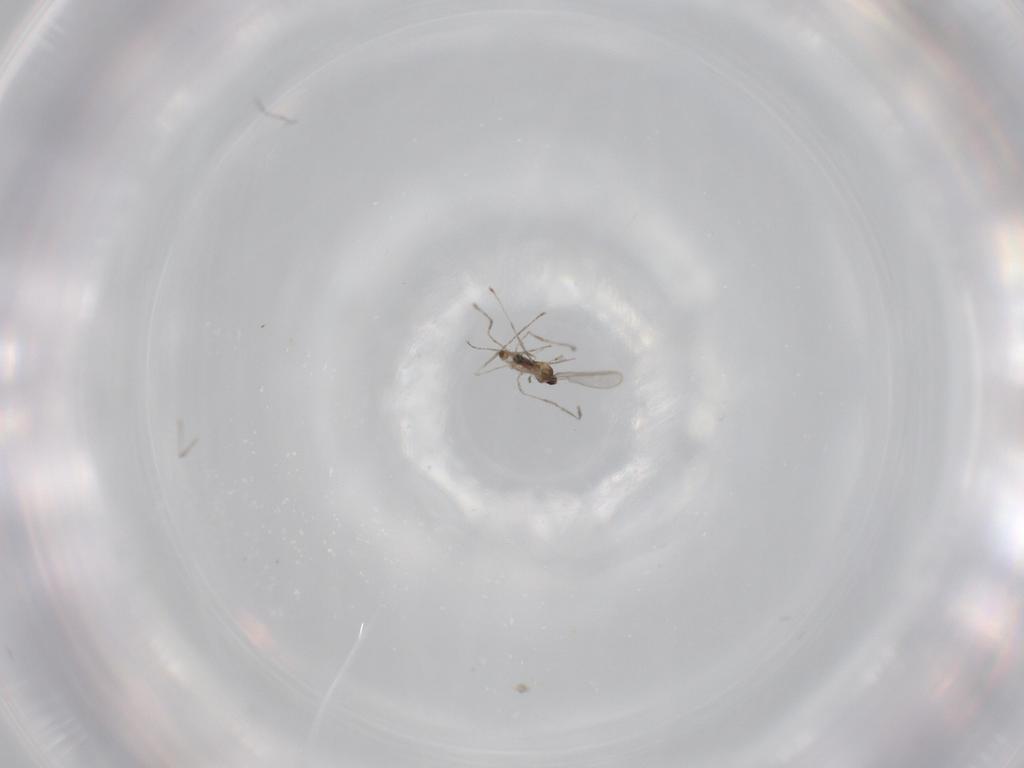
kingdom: Animalia
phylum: Arthropoda
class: Insecta
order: Diptera
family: Cecidomyiidae
